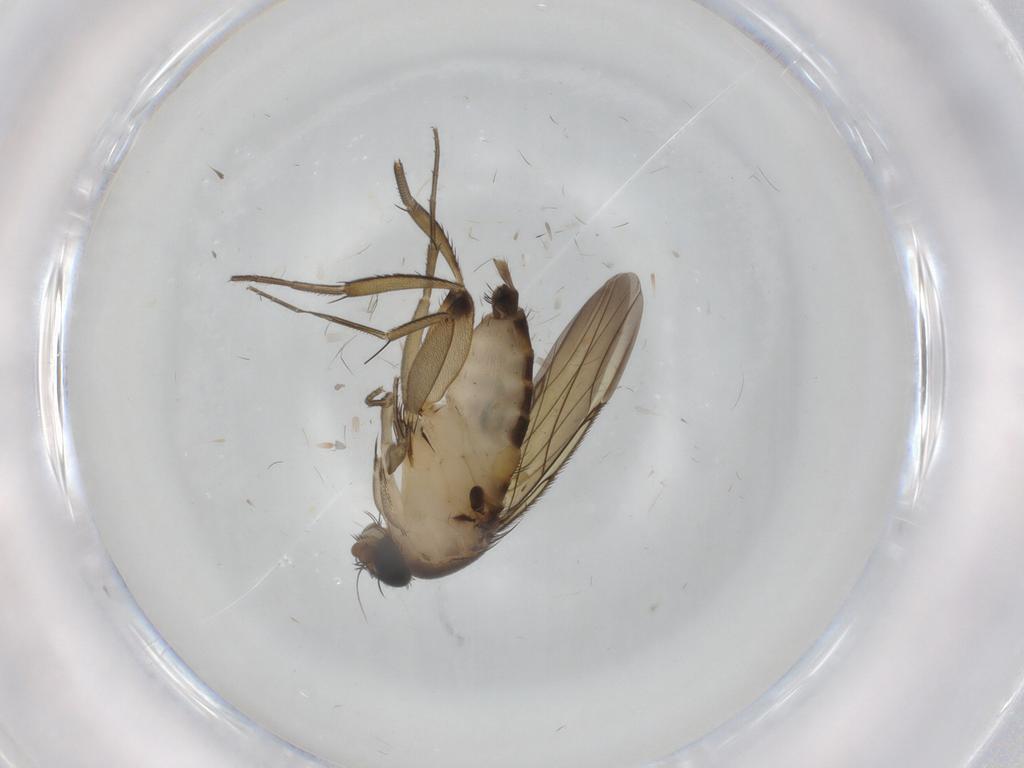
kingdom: Animalia
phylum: Arthropoda
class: Insecta
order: Diptera
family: Phoridae
